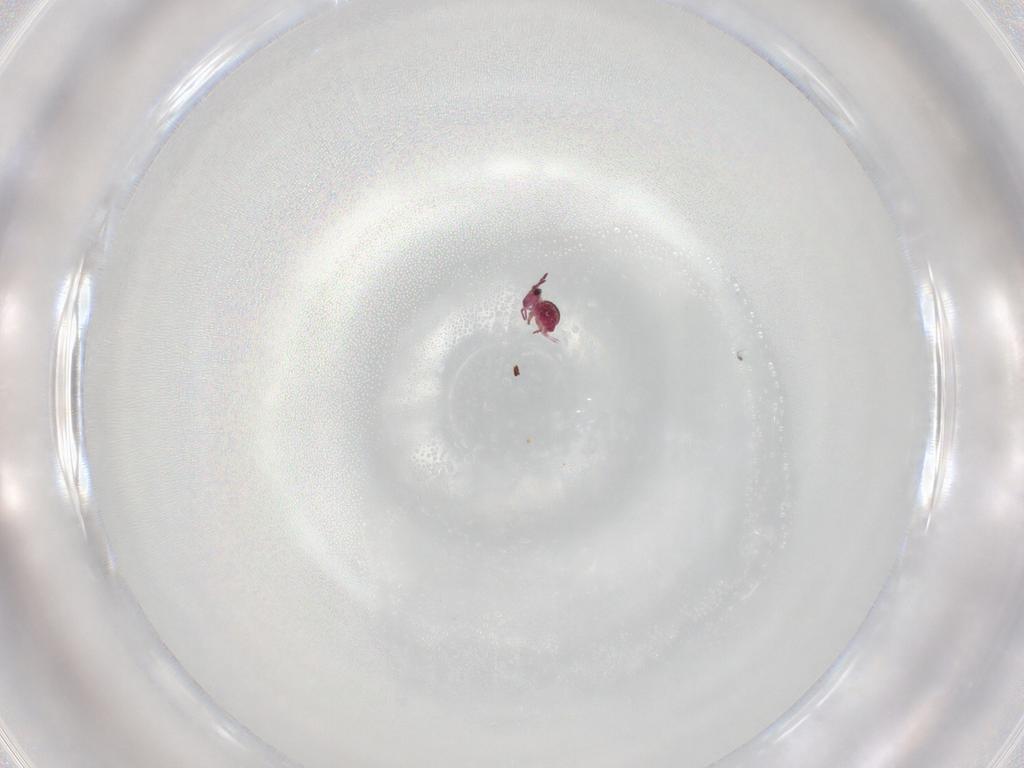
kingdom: Animalia
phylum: Arthropoda
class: Collembola
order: Symphypleona
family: Sminthurididae
